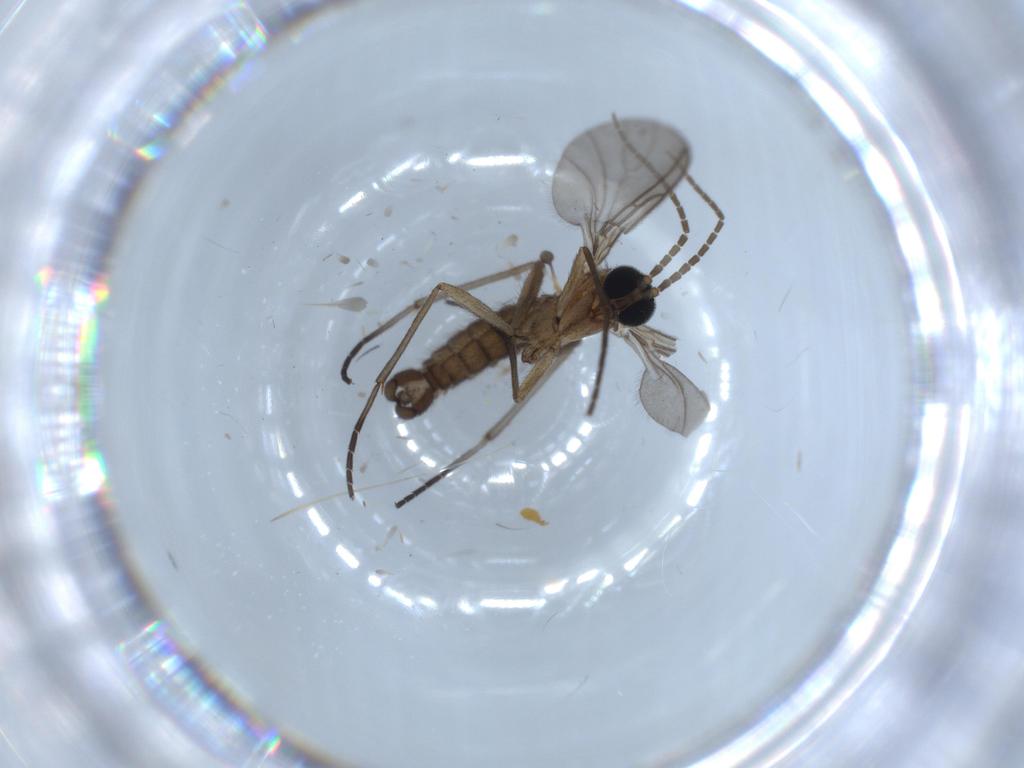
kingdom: Animalia
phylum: Arthropoda
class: Insecta
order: Diptera
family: Sciaridae
